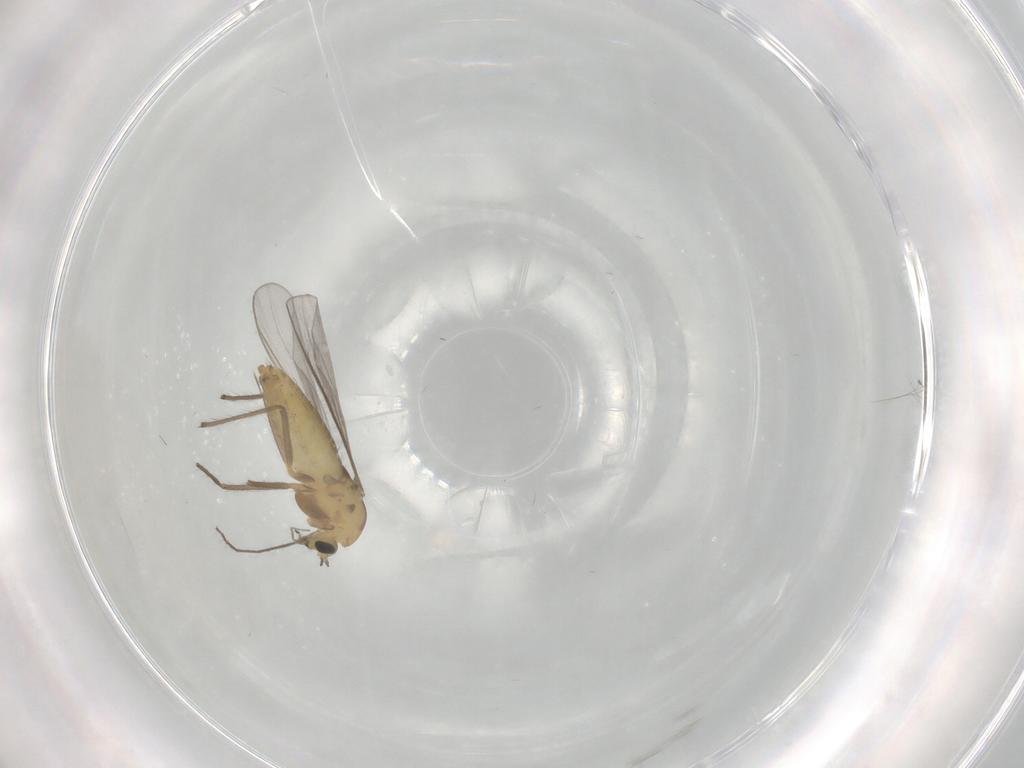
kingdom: Animalia
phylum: Arthropoda
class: Insecta
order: Diptera
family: Chironomidae
